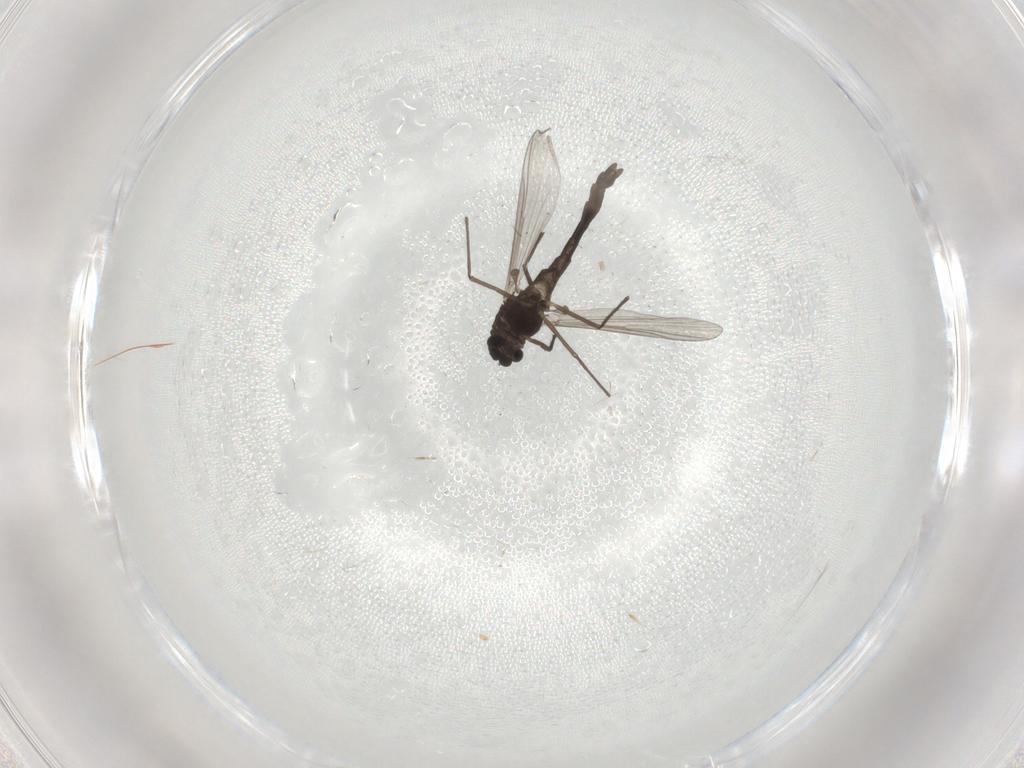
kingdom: Animalia
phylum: Arthropoda
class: Insecta
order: Diptera
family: Chironomidae
